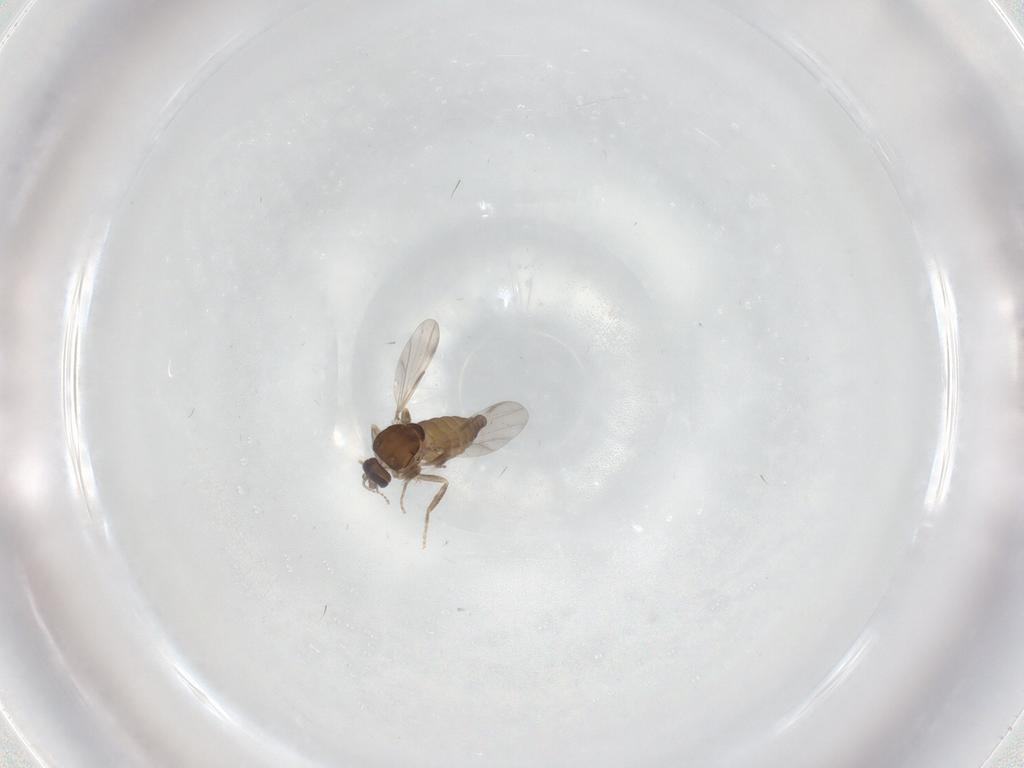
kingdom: Animalia
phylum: Arthropoda
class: Insecta
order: Diptera
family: Ceratopogonidae
